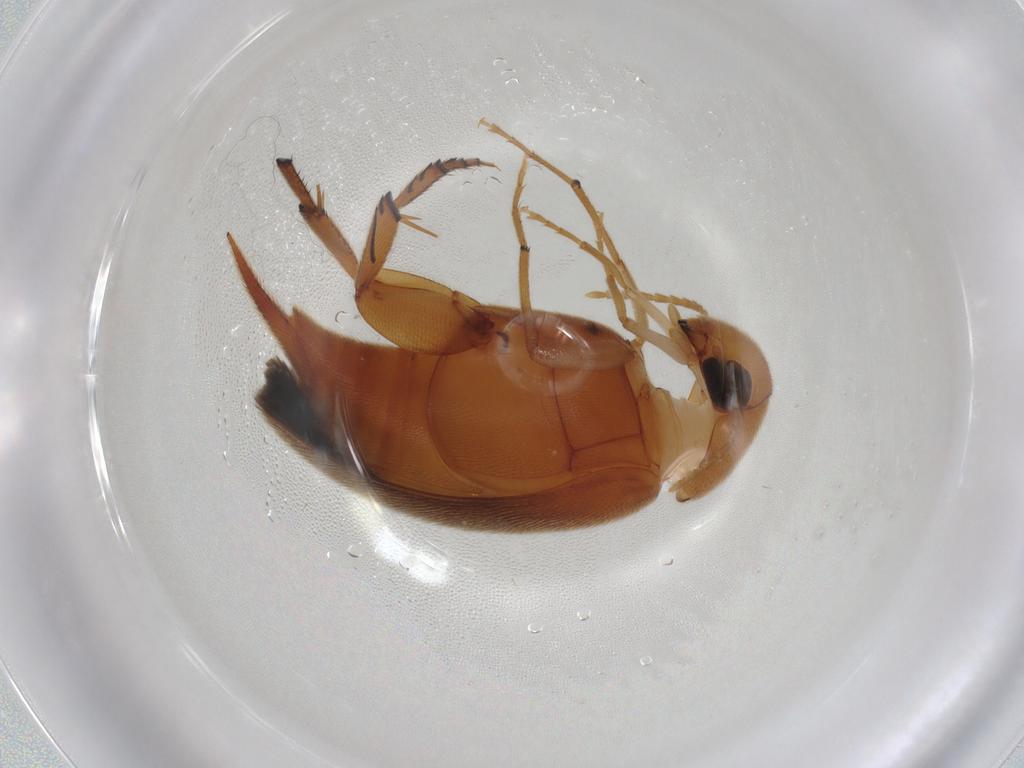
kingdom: Animalia
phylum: Arthropoda
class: Insecta
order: Coleoptera
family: Mordellidae
